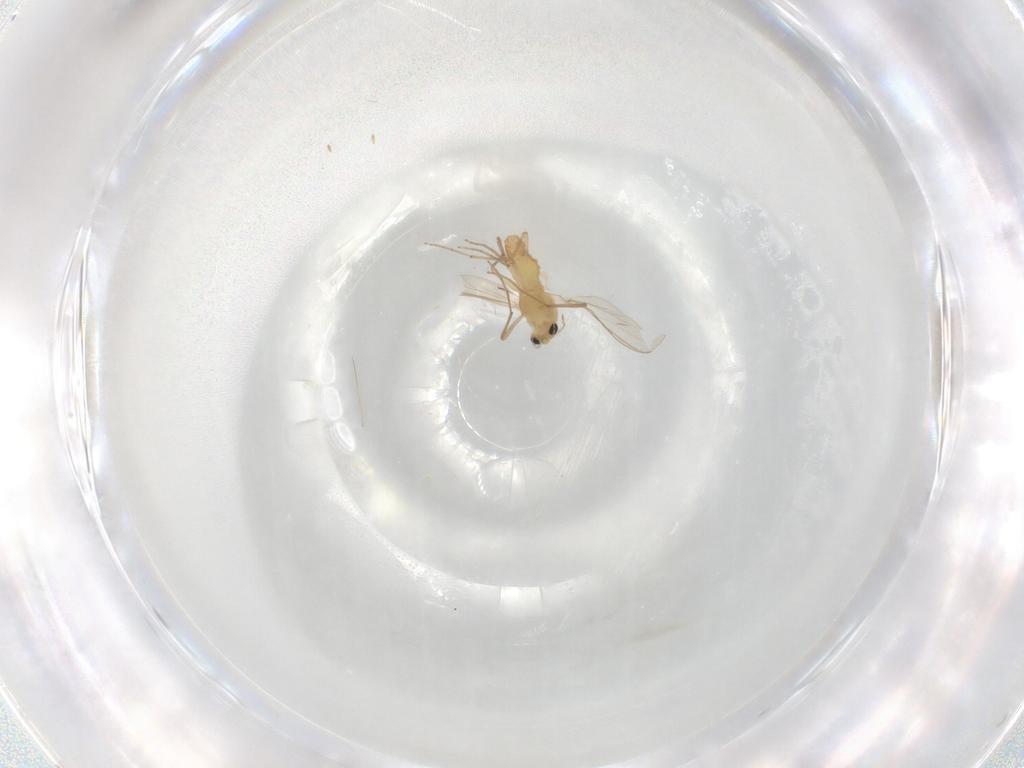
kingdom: Animalia
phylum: Arthropoda
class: Insecta
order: Diptera
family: Chironomidae
